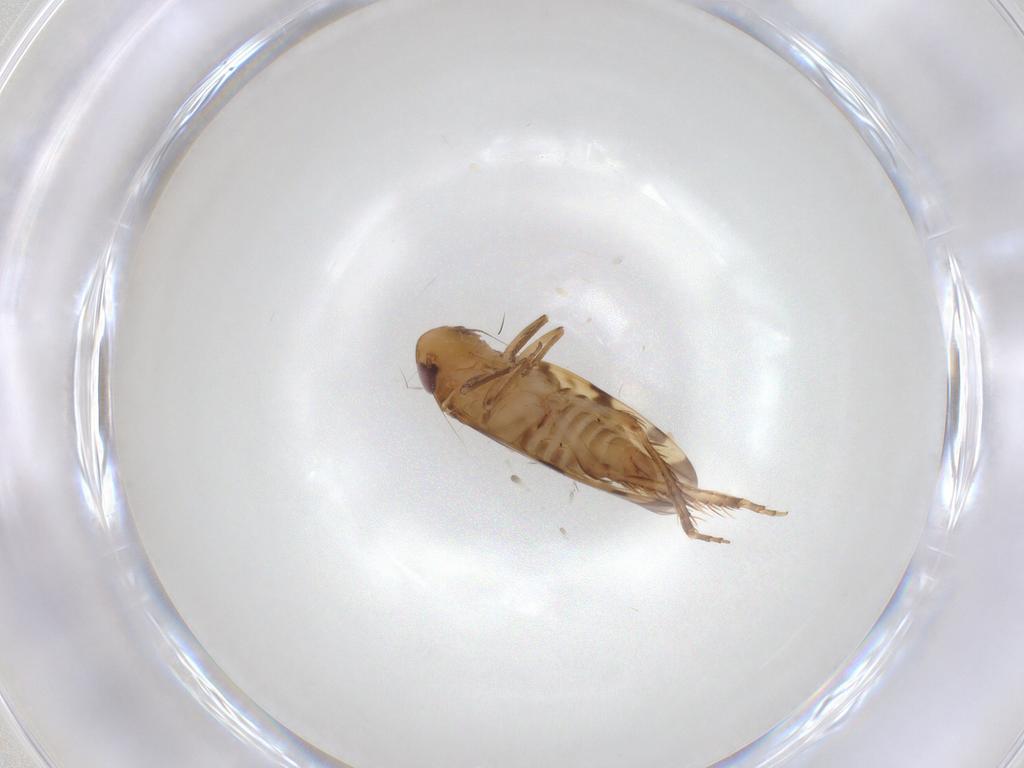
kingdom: Animalia
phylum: Arthropoda
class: Insecta
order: Hemiptera
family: Cicadellidae
